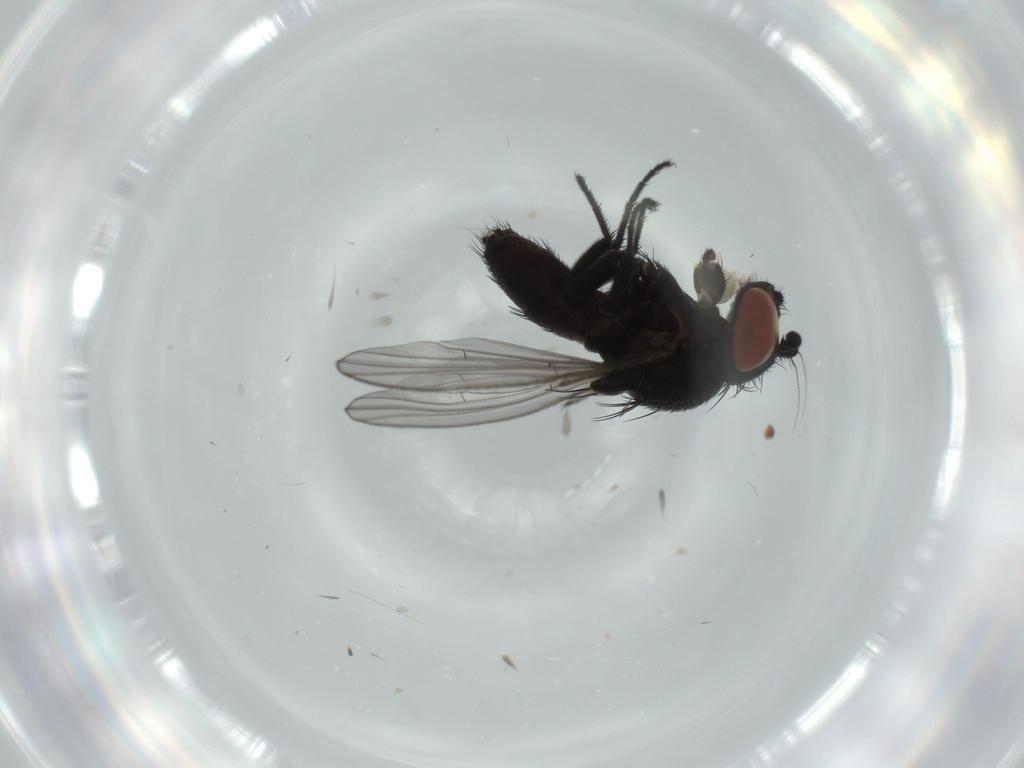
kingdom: Animalia
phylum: Arthropoda
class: Insecta
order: Diptera
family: Milichiidae
